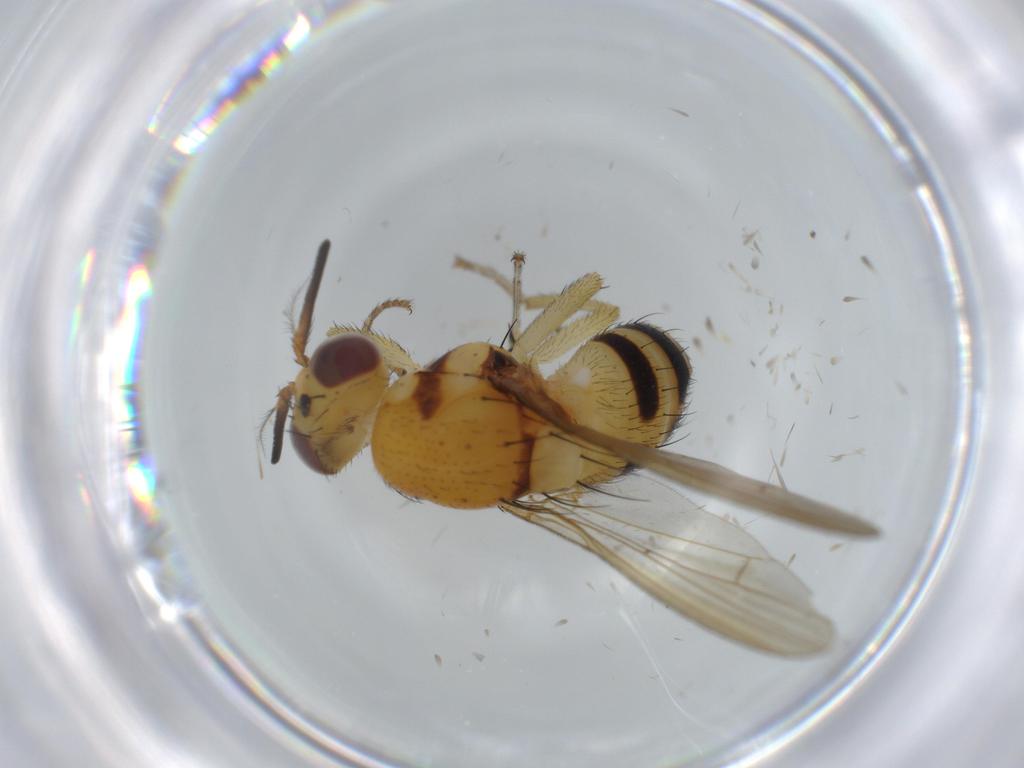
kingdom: Animalia
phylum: Arthropoda
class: Insecta
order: Diptera
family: Lauxaniidae
